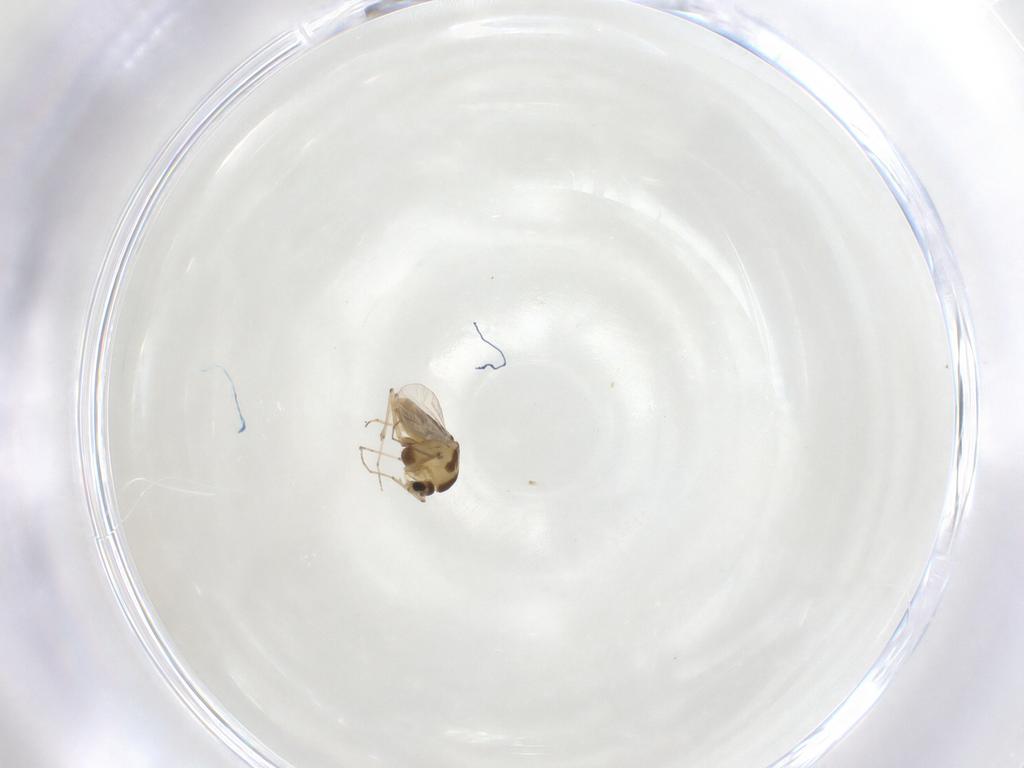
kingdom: Animalia
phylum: Arthropoda
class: Insecta
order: Diptera
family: Chironomidae
